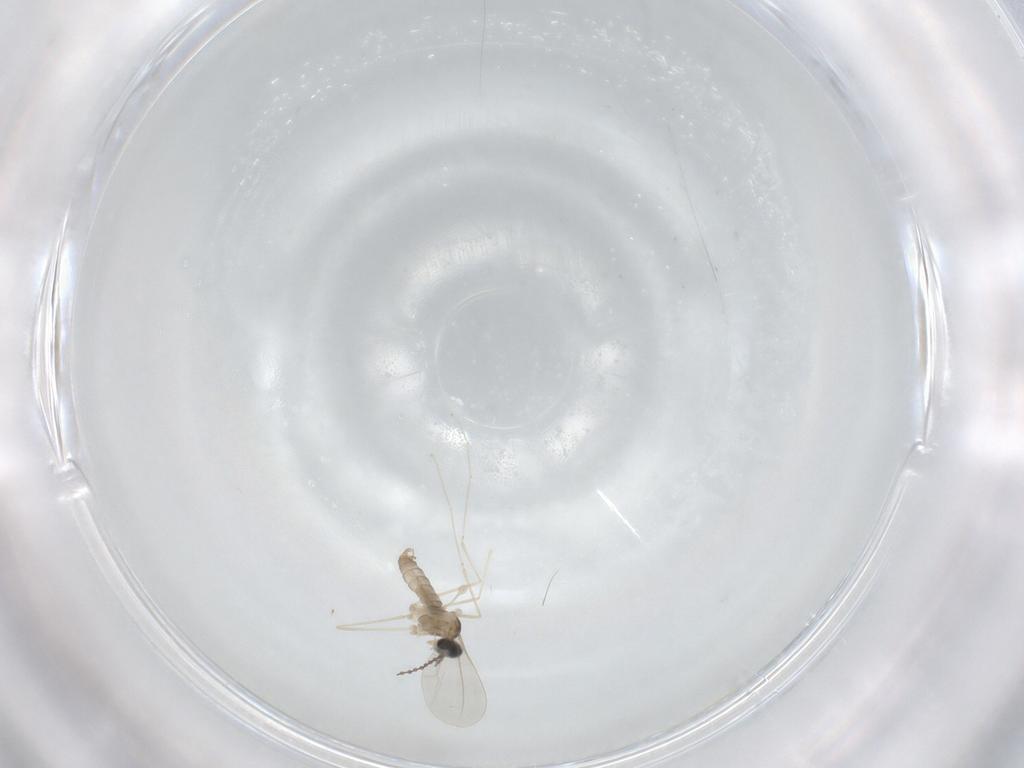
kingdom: Animalia
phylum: Arthropoda
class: Insecta
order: Diptera
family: Cecidomyiidae
